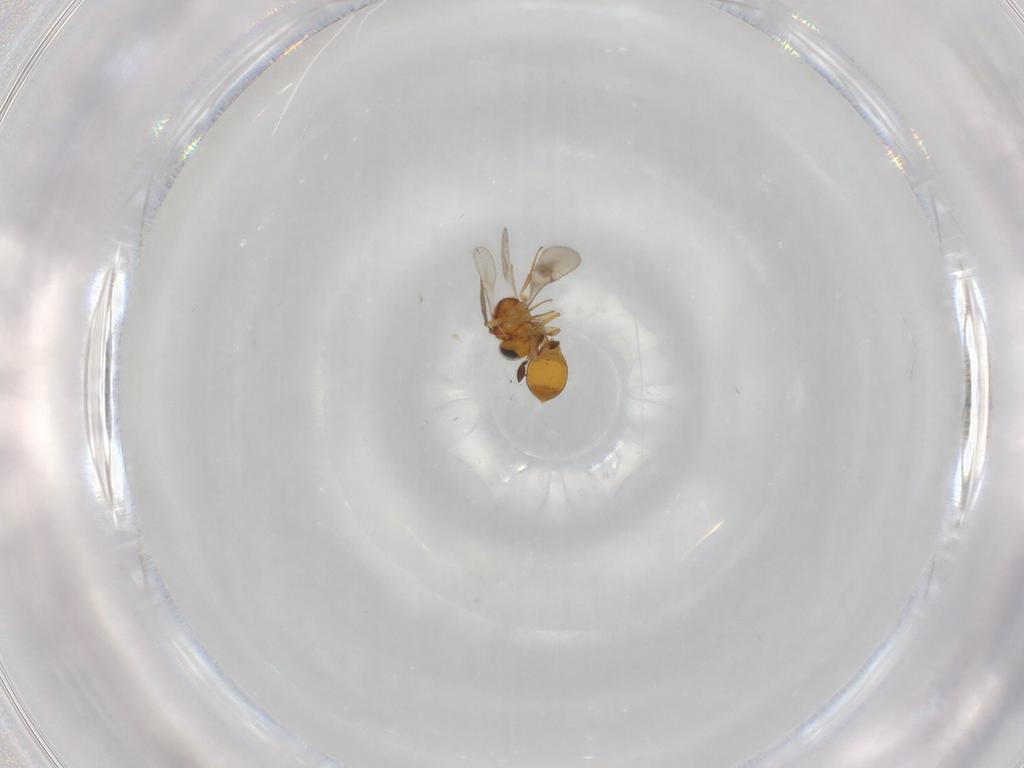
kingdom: Animalia
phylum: Arthropoda
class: Insecta
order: Hymenoptera
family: Scelionidae
